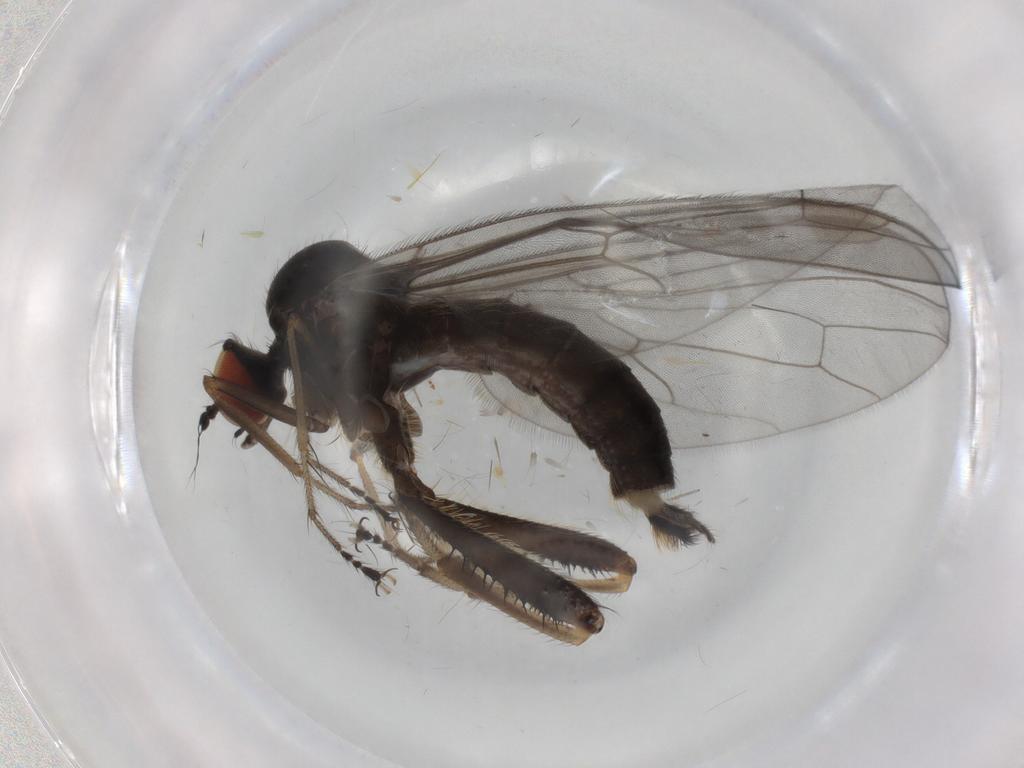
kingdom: Animalia
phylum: Arthropoda
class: Insecta
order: Diptera
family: Hybotidae
